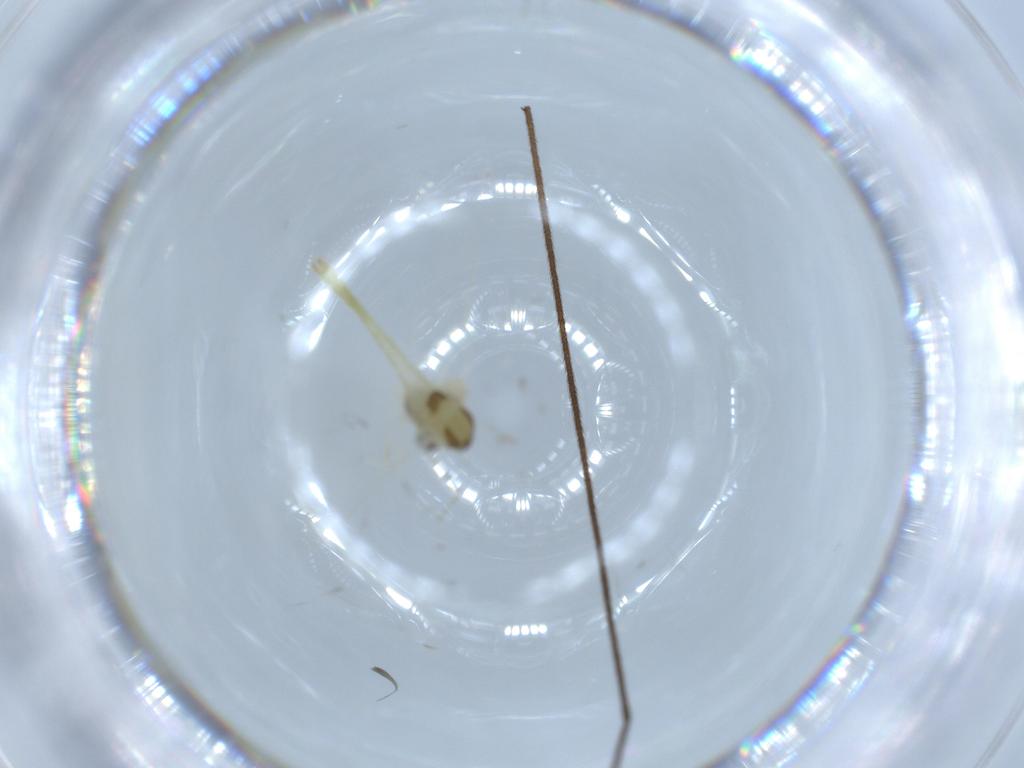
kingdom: Animalia
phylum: Arthropoda
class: Insecta
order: Diptera
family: Chironomidae
